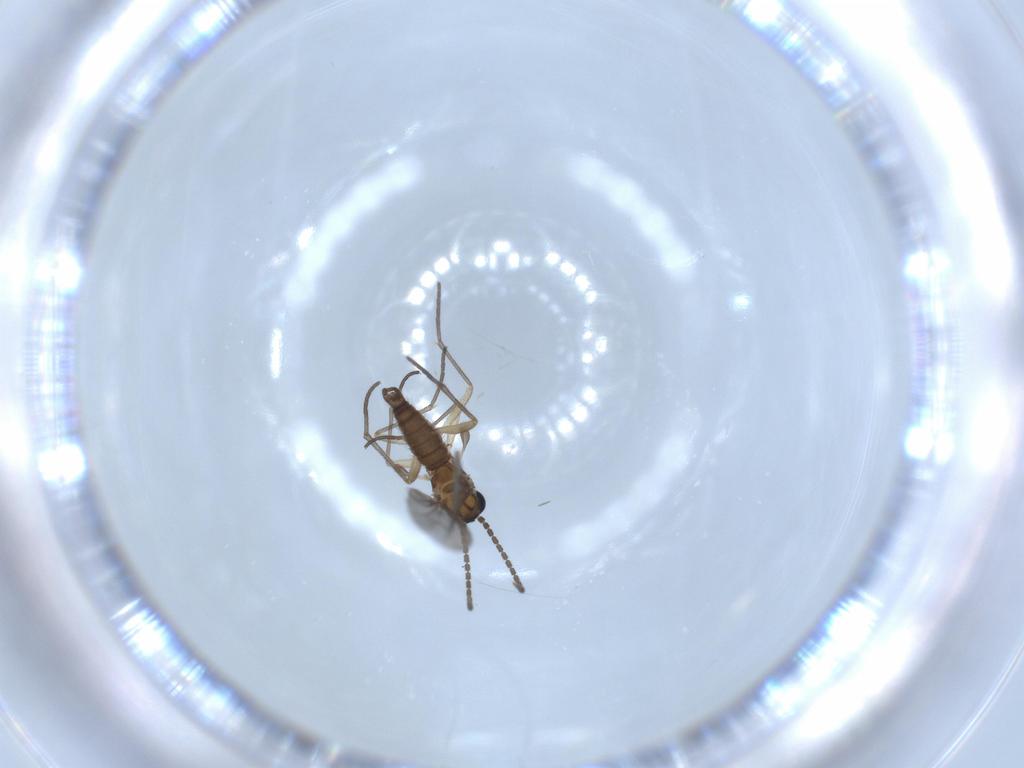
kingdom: Animalia
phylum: Arthropoda
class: Insecta
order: Diptera
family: Sciaridae
